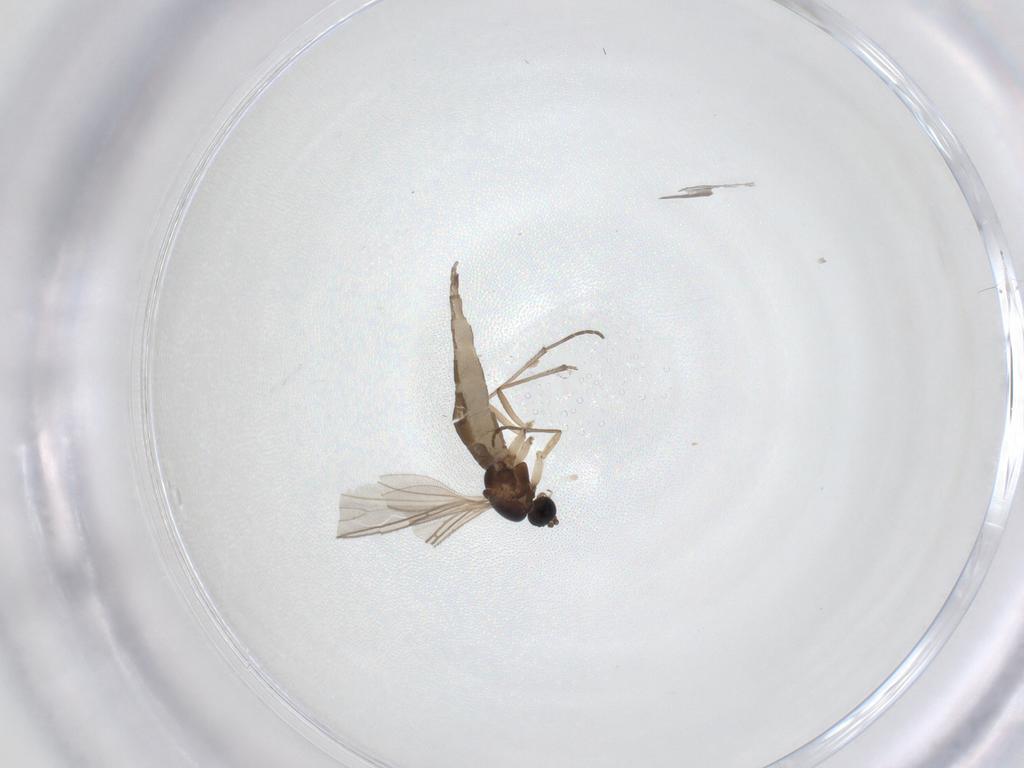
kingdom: Animalia
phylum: Arthropoda
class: Insecta
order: Diptera
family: Sciaridae
